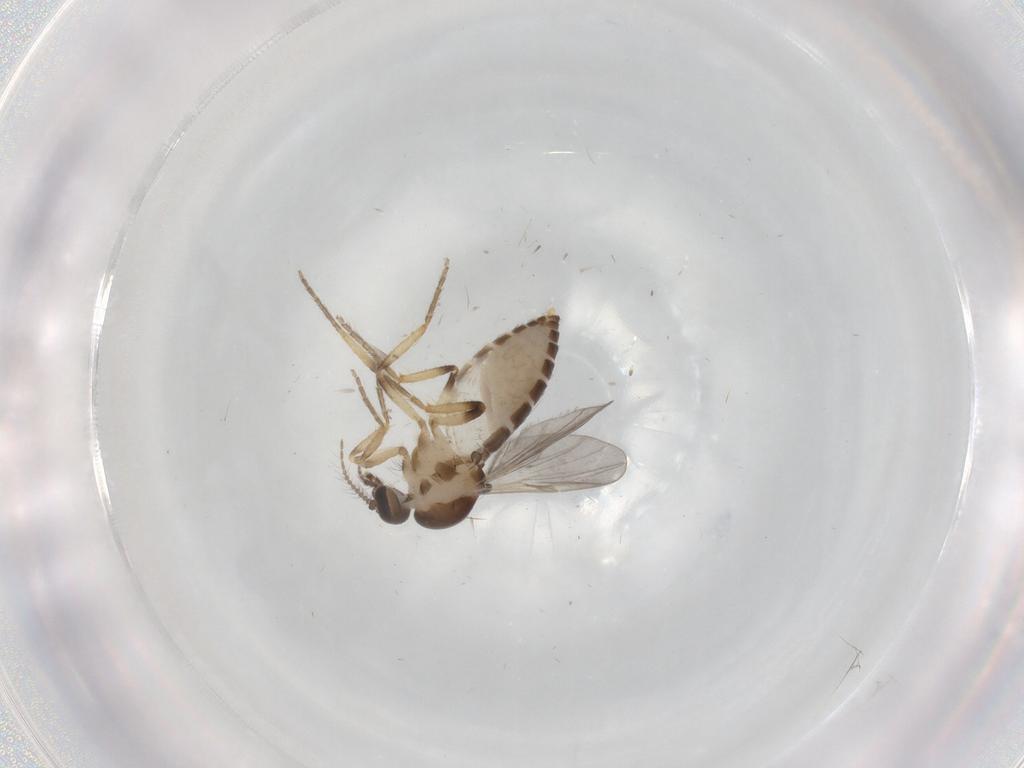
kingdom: Animalia
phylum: Arthropoda
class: Insecta
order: Diptera
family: Ceratopogonidae
